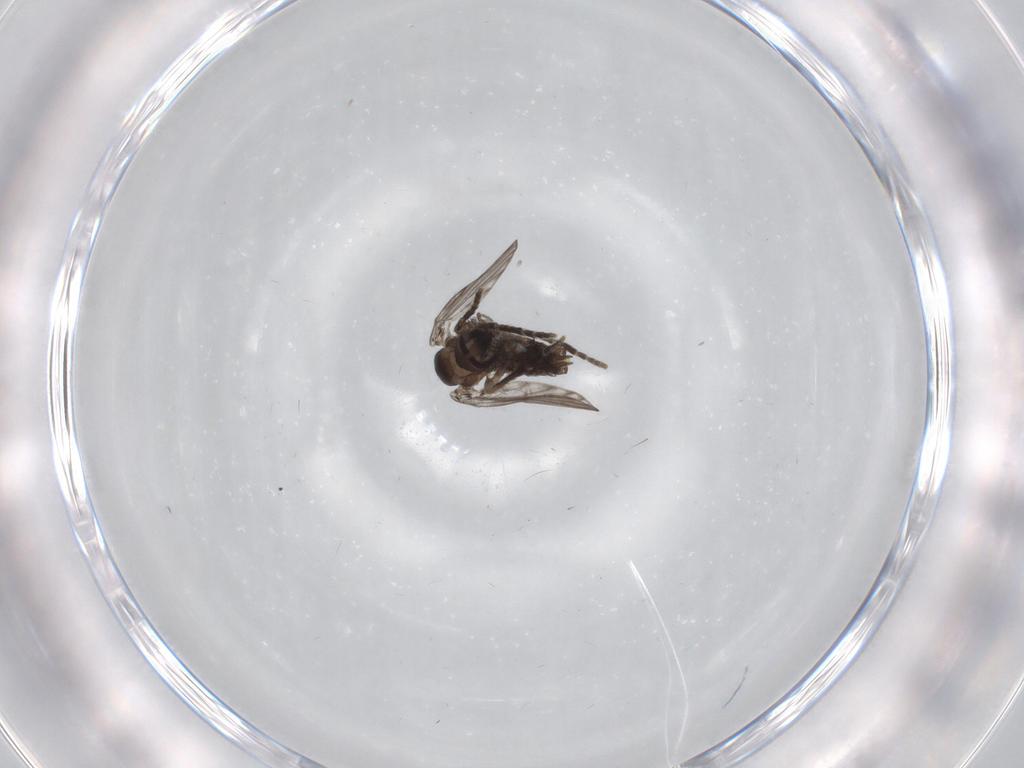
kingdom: Animalia
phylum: Arthropoda
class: Insecta
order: Diptera
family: Psychodidae
